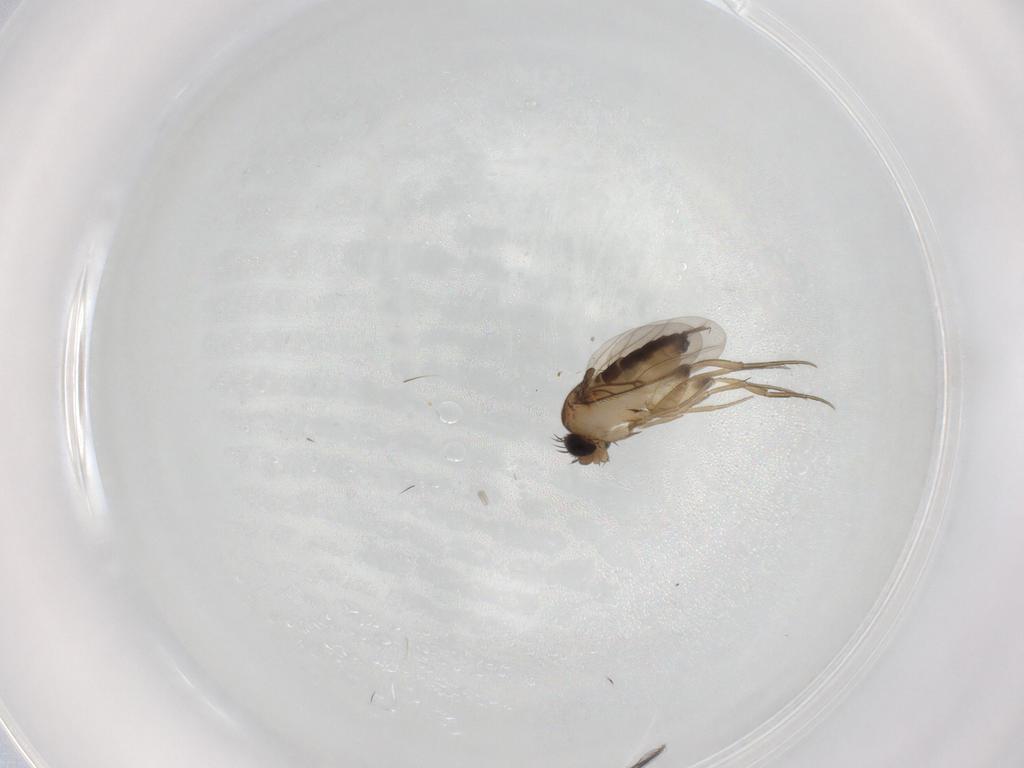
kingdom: Animalia
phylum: Arthropoda
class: Insecta
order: Diptera
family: Phoridae
